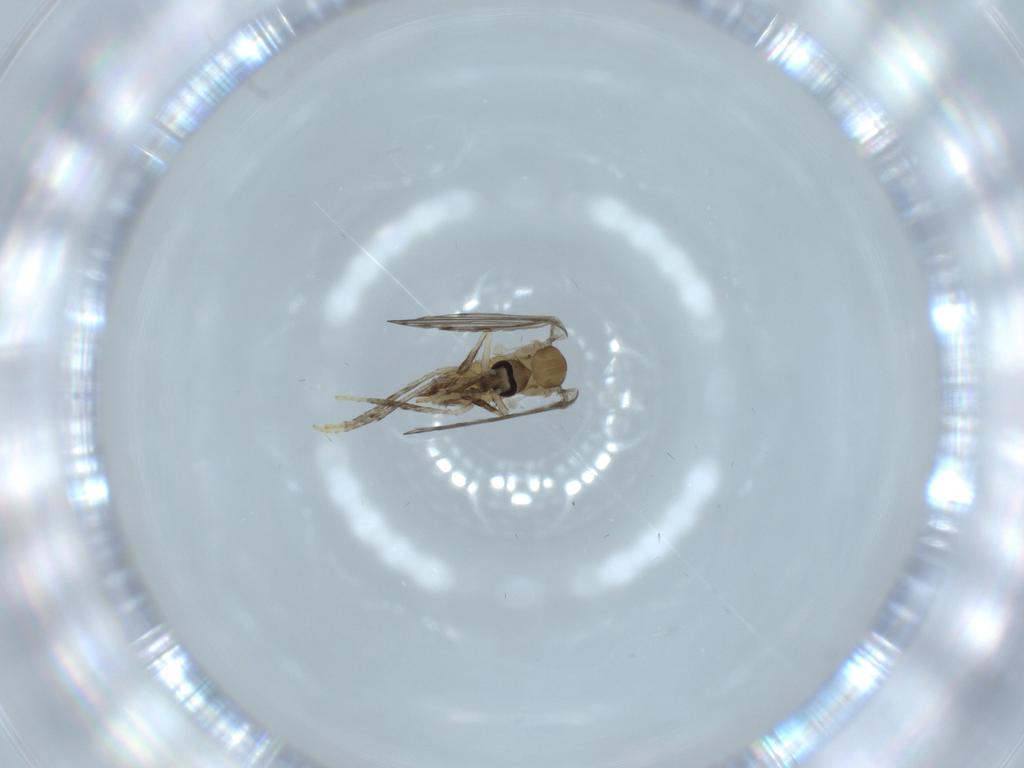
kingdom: Animalia
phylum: Arthropoda
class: Insecta
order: Diptera
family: Psychodidae
